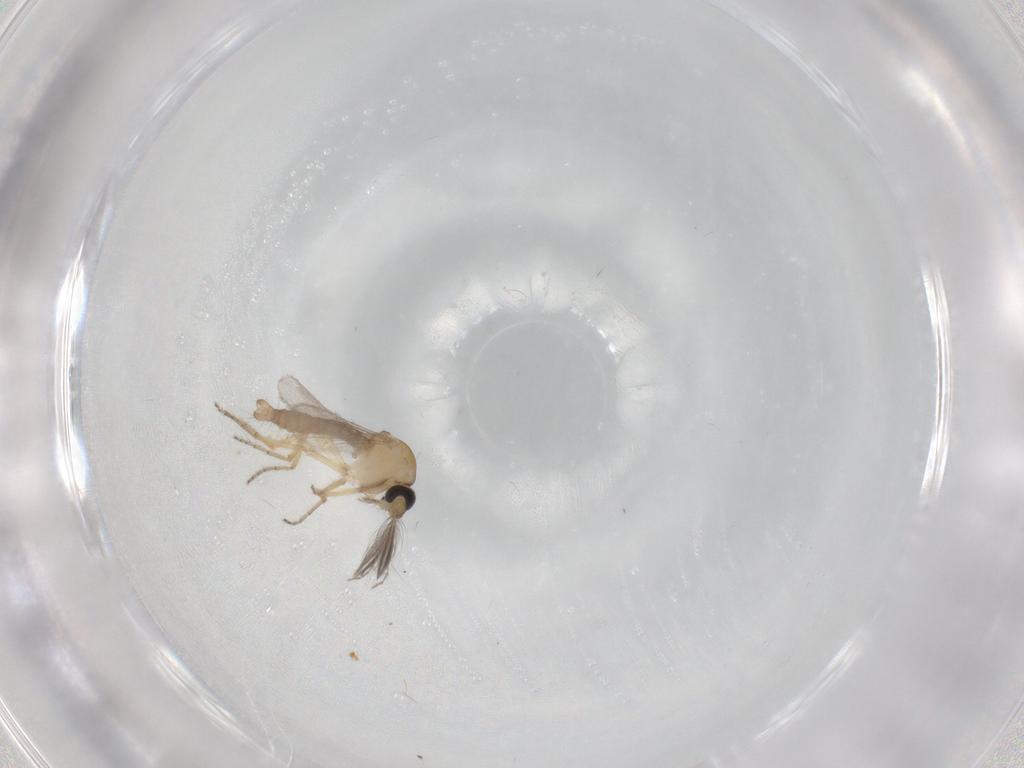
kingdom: Animalia
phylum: Arthropoda
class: Insecta
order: Diptera
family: Ceratopogonidae
